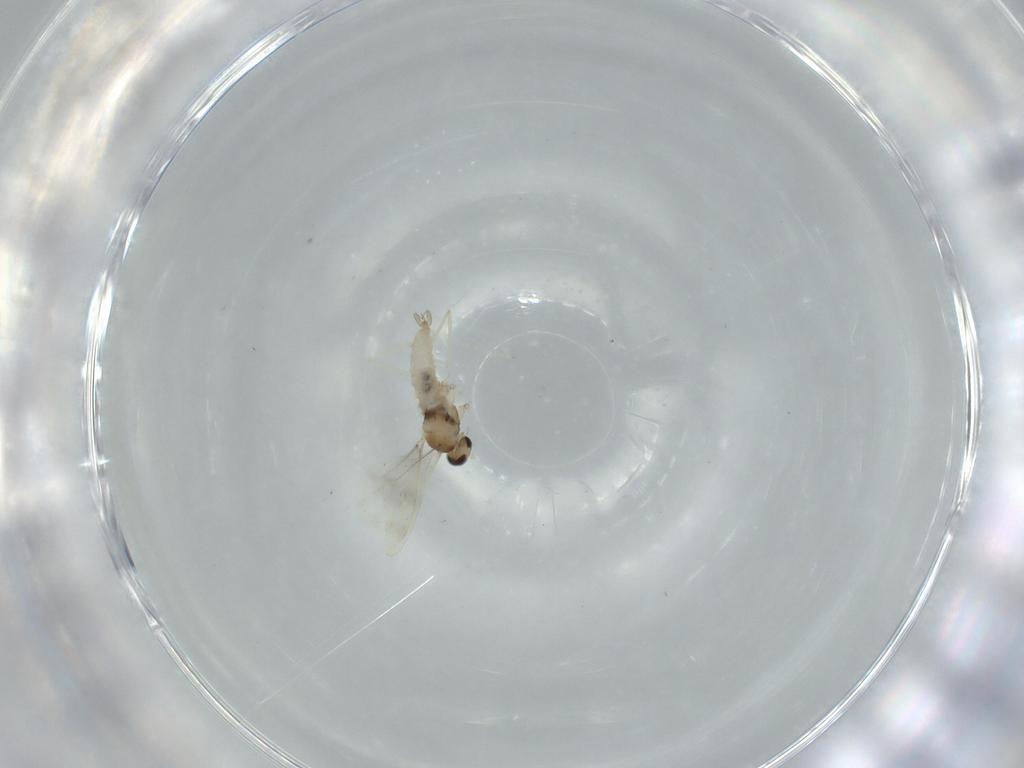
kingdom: Animalia
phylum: Arthropoda
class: Insecta
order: Diptera
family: Cecidomyiidae
